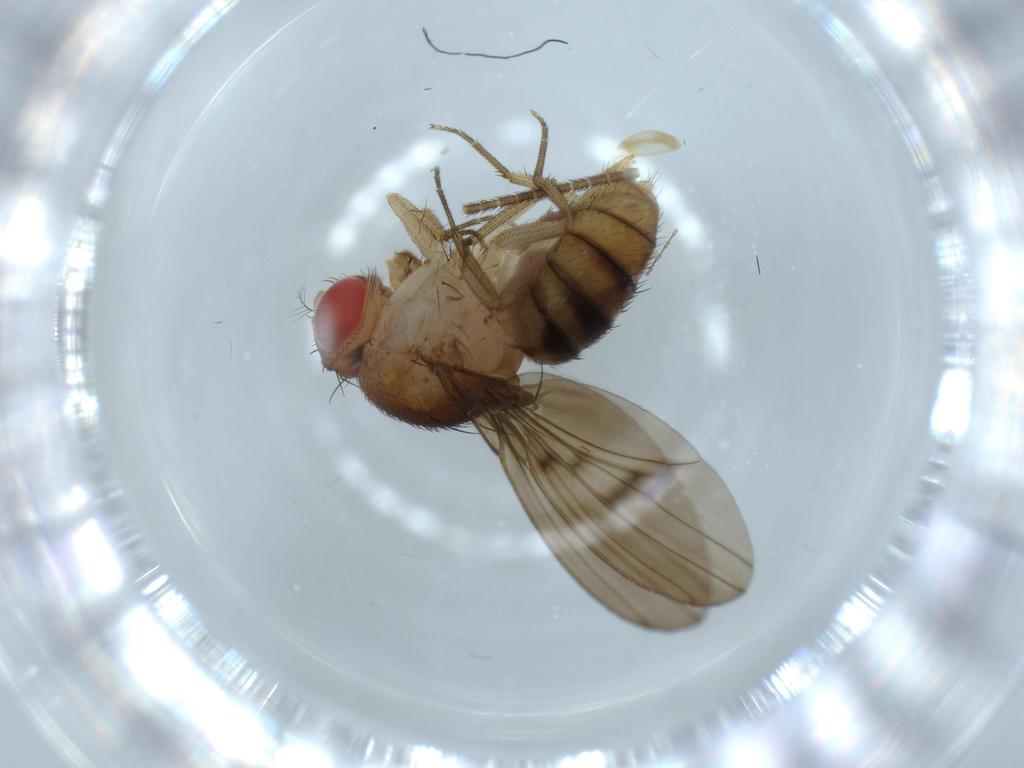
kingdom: Animalia
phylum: Arthropoda
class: Insecta
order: Diptera
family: Drosophilidae
